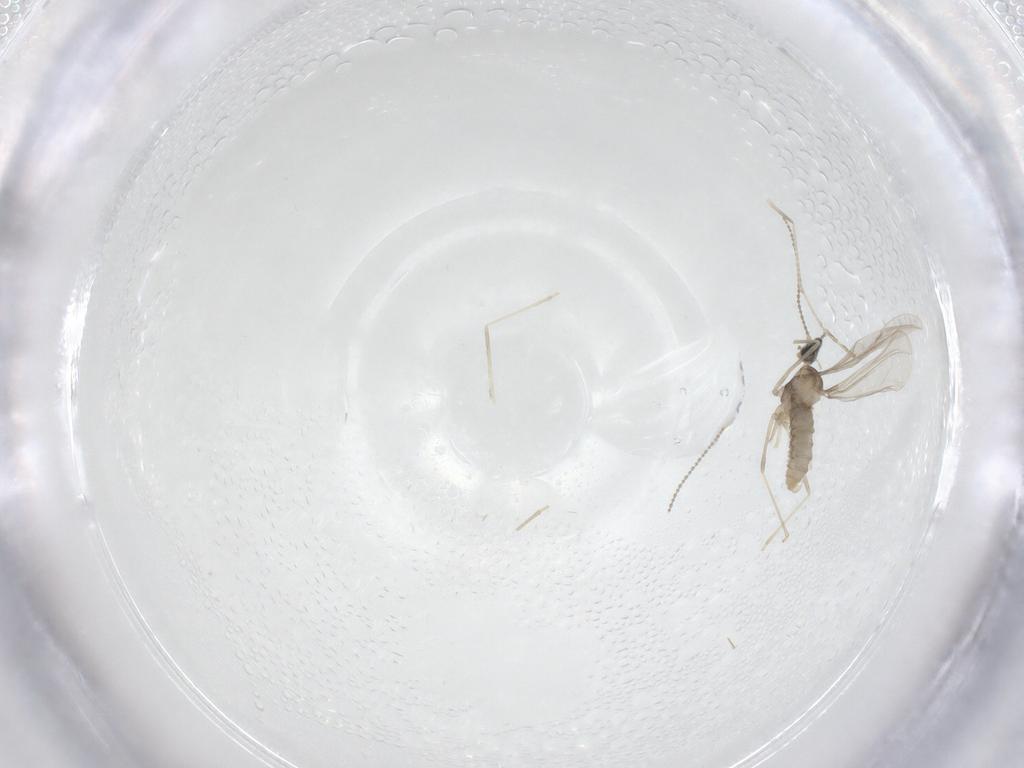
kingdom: Animalia
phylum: Arthropoda
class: Insecta
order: Diptera
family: Cecidomyiidae
